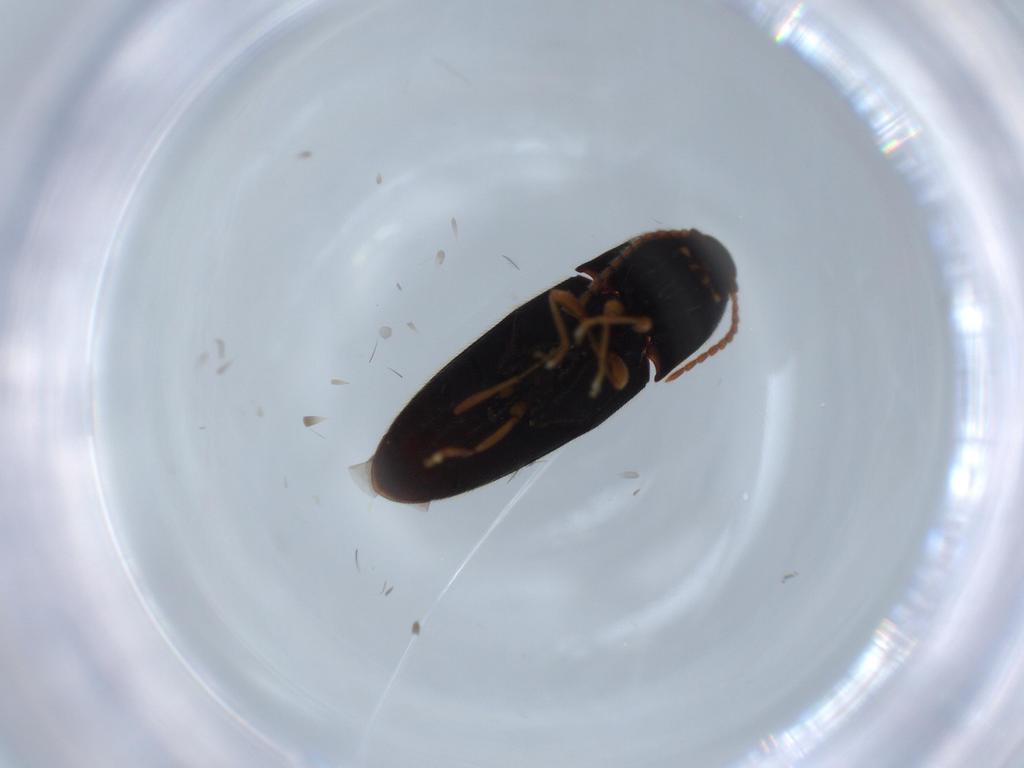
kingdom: Animalia
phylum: Arthropoda
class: Insecta
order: Coleoptera
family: Elateridae
